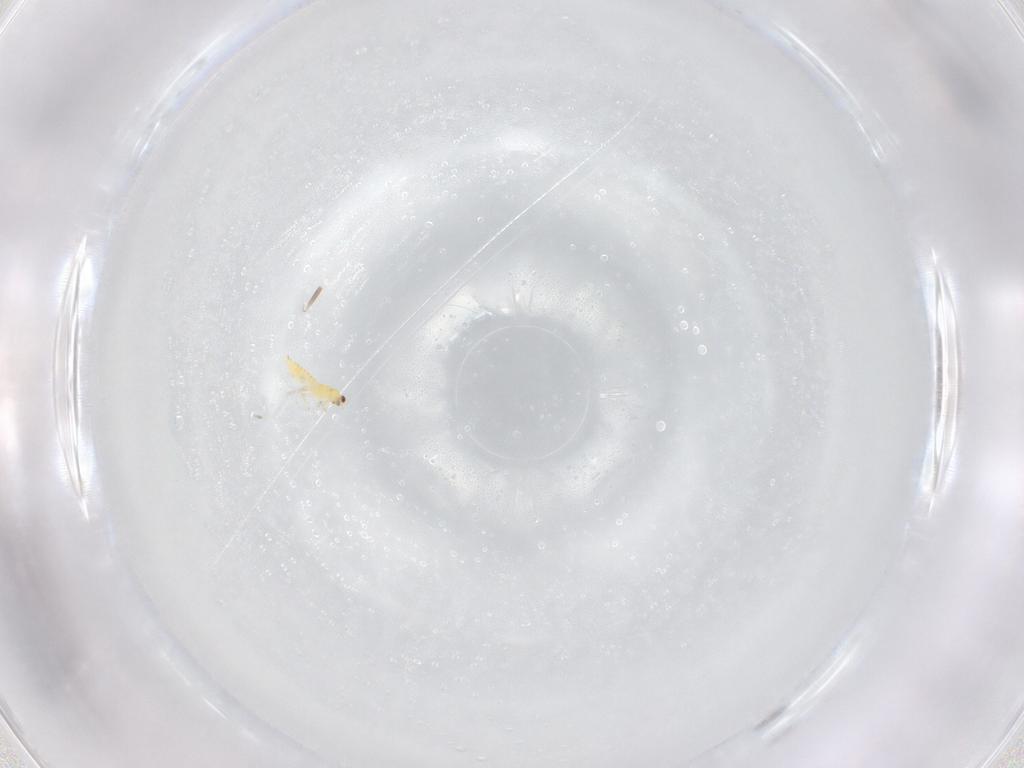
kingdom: Animalia
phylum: Arthropoda
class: Insecta
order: Thysanoptera
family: Thripidae
